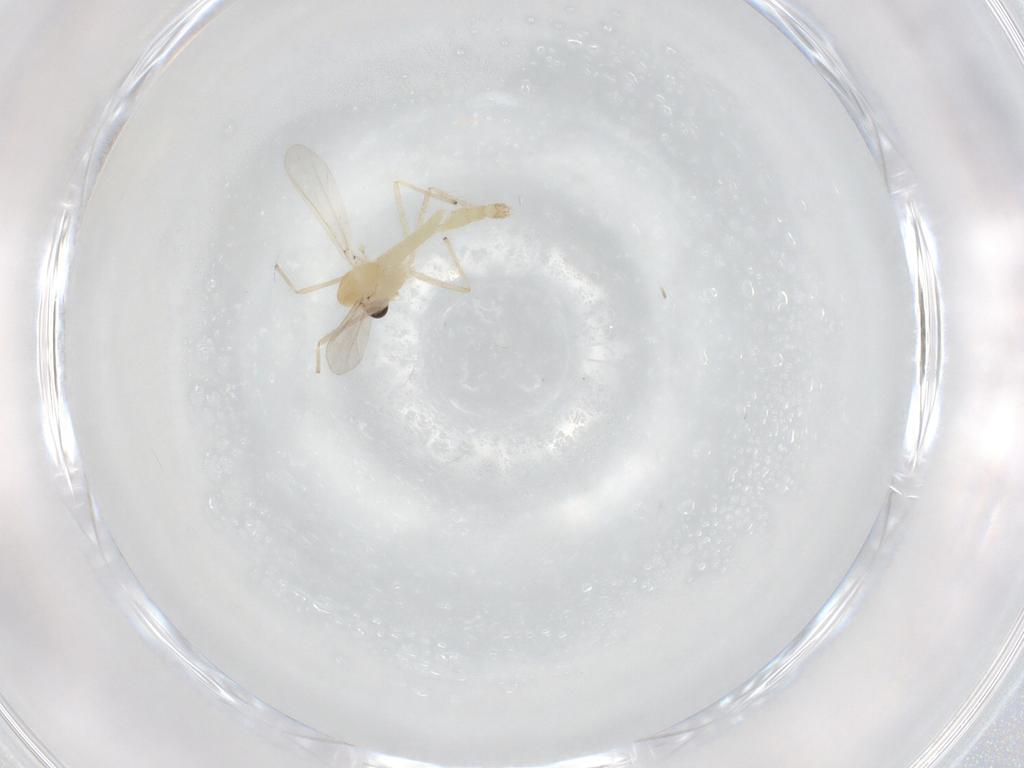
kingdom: Animalia
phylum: Arthropoda
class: Insecta
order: Diptera
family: Chironomidae
